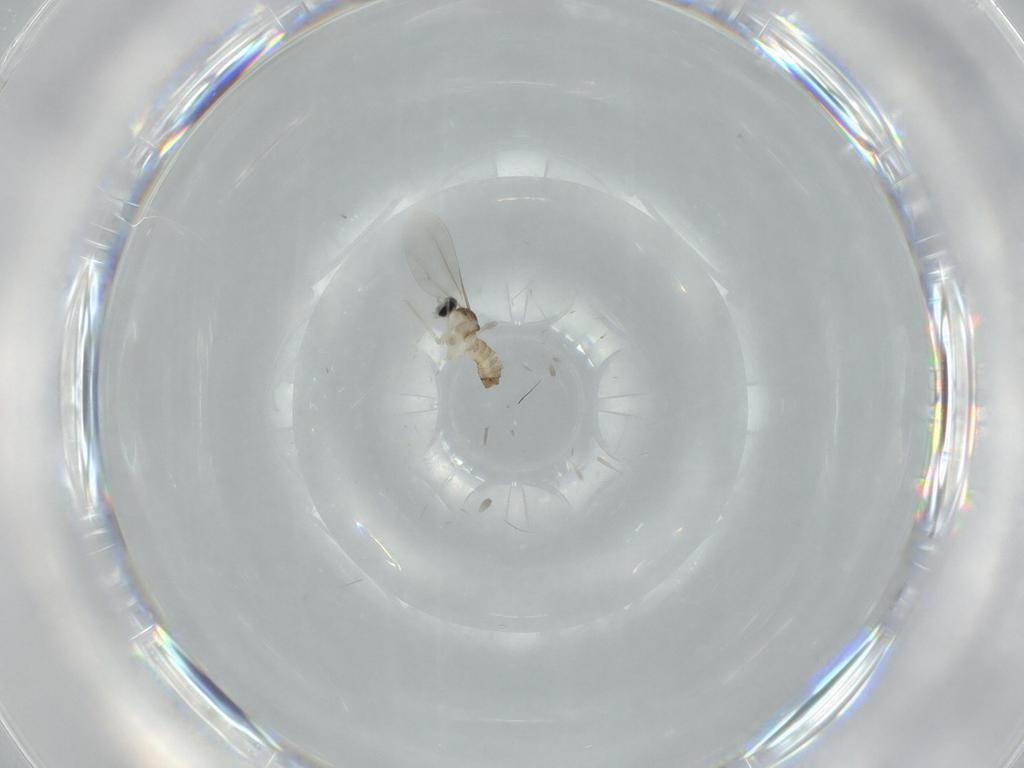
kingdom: Animalia
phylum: Arthropoda
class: Insecta
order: Diptera
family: Cecidomyiidae
